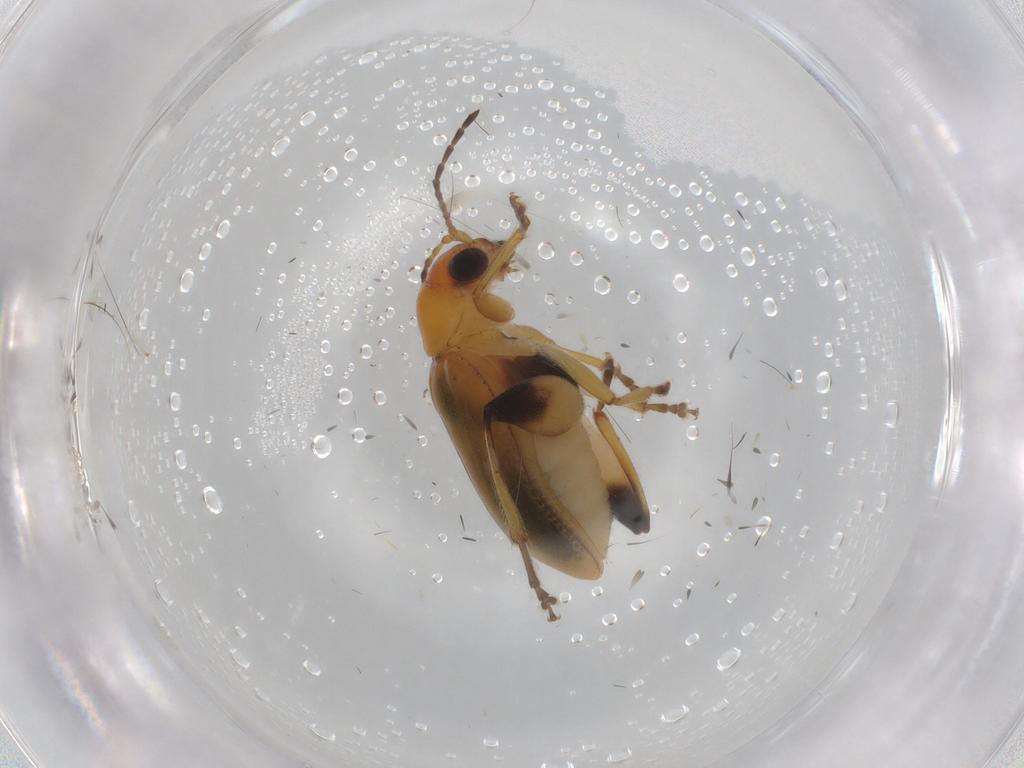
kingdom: Animalia
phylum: Arthropoda
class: Insecta
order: Coleoptera
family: Chrysomelidae
